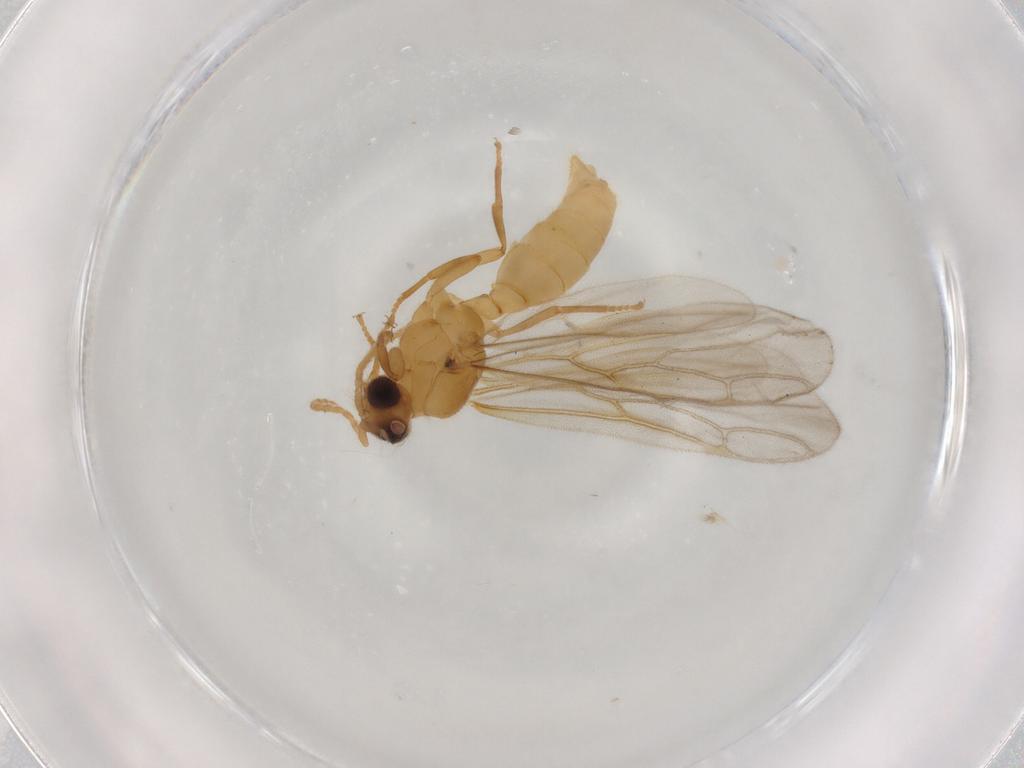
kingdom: Animalia
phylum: Arthropoda
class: Insecta
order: Hymenoptera
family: Formicidae
